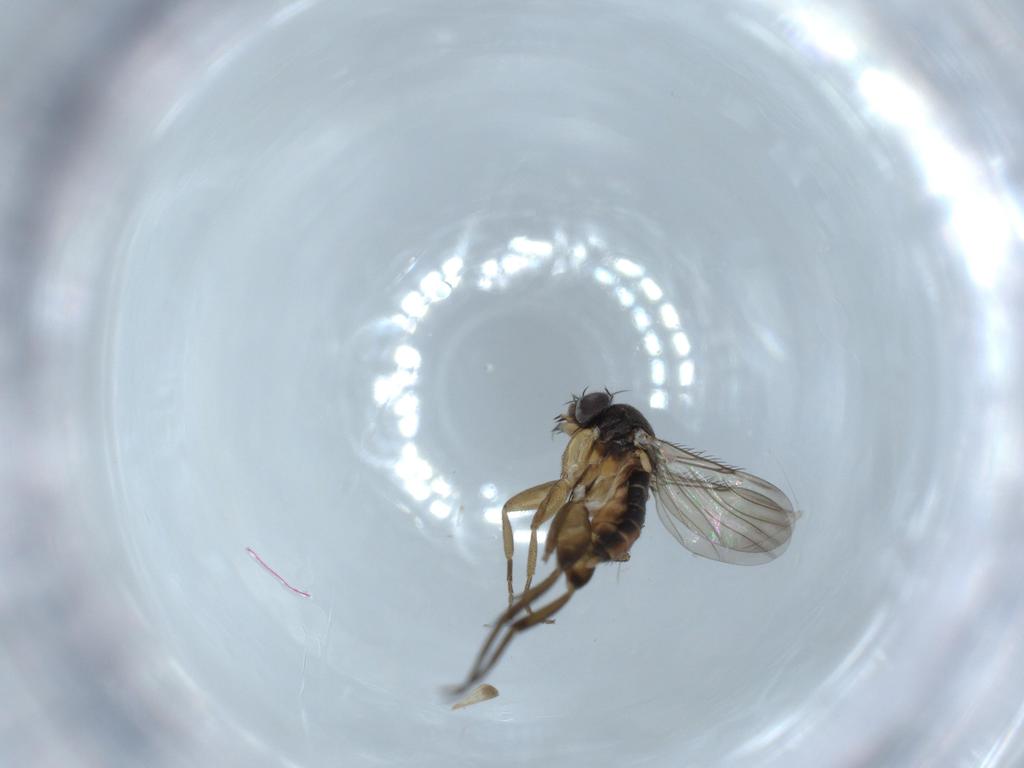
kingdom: Animalia
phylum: Arthropoda
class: Insecta
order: Diptera
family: Phoridae
